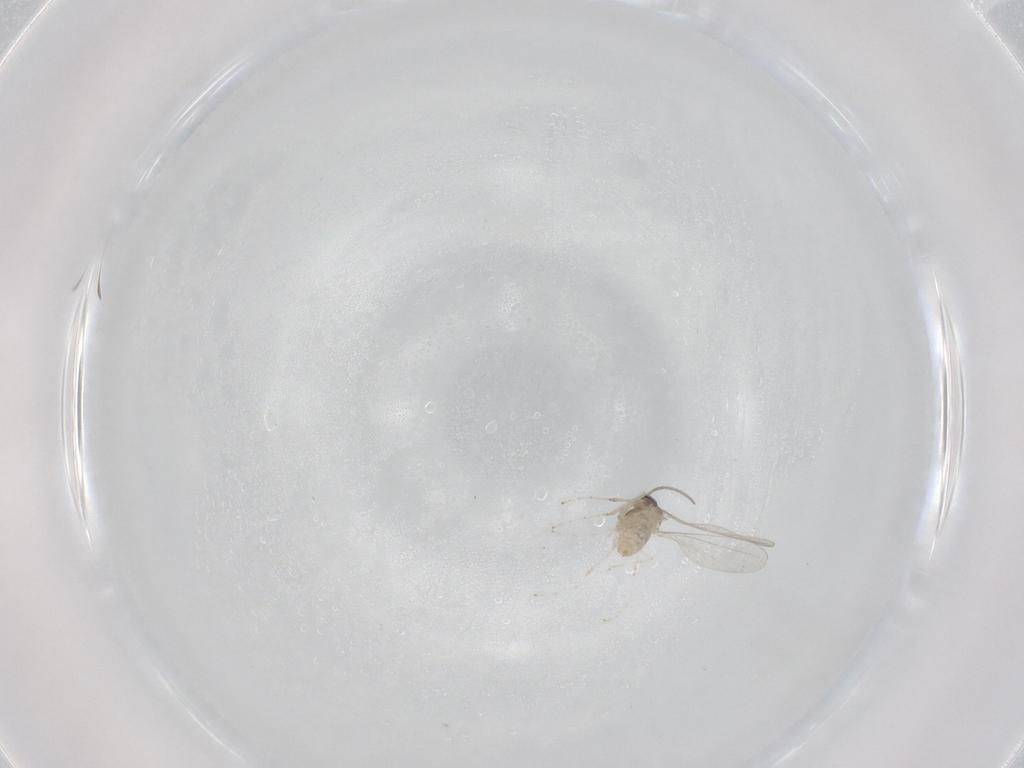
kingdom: Animalia
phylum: Arthropoda
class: Insecta
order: Diptera
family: Cecidomyiidae
